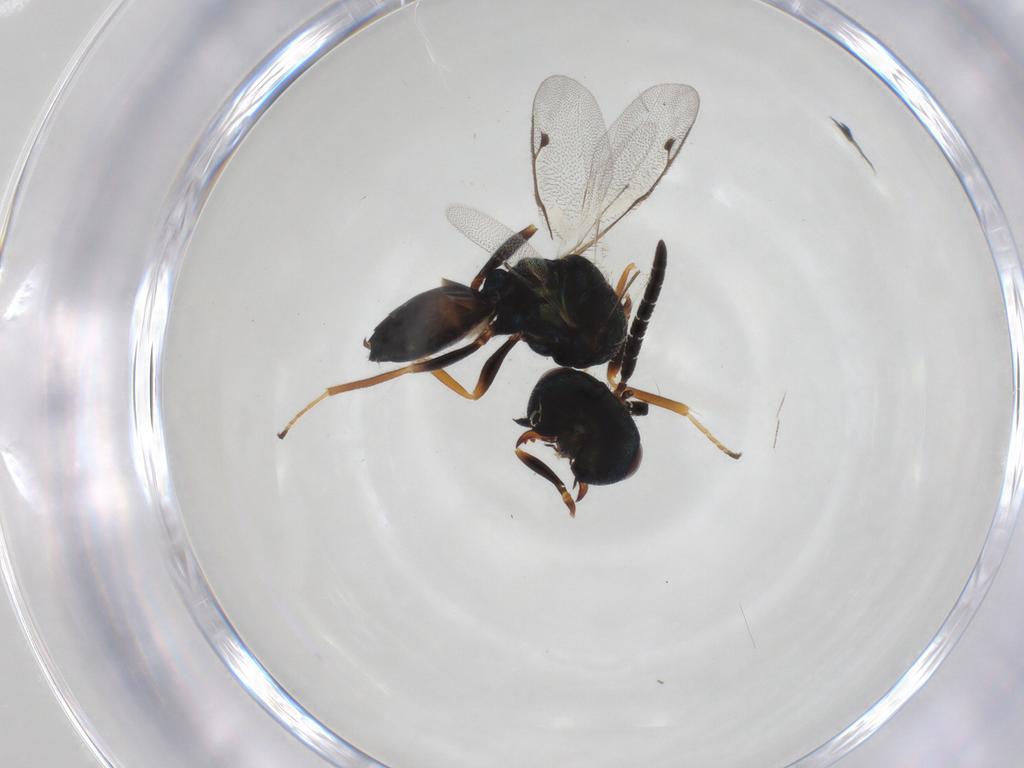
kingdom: Animalia
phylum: Arthropoda
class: Insecta
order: Hymenoptera
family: Pteromalidae
